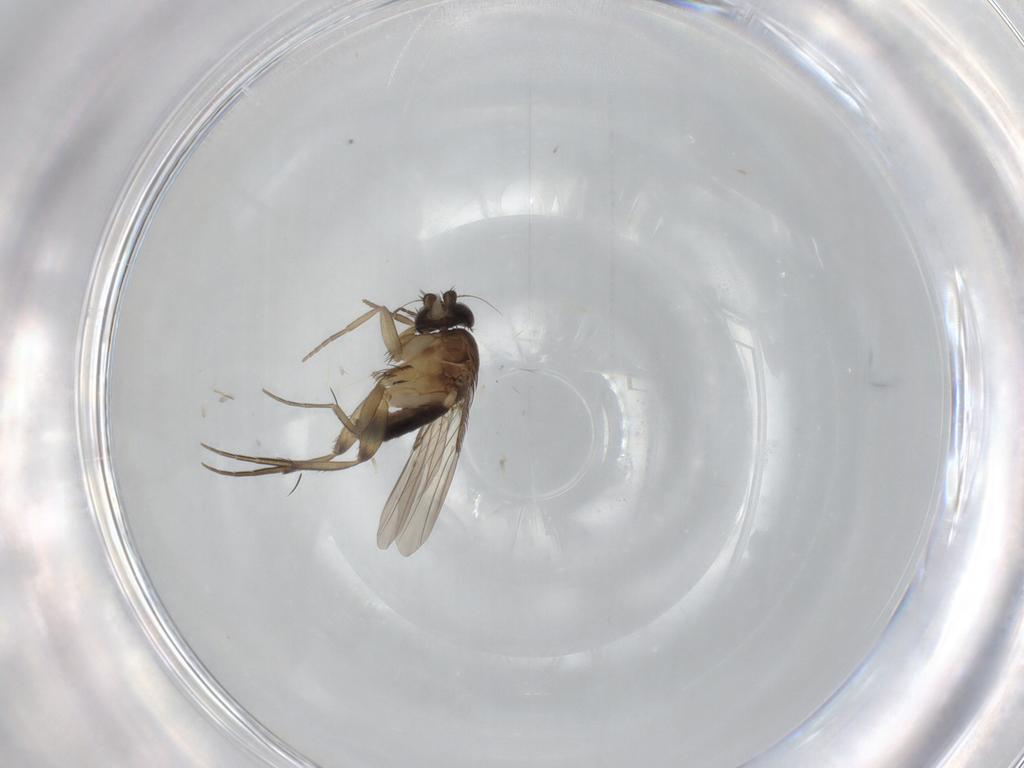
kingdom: Animalia
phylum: Arthropoda
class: Insecta
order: Diptera
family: Phoridae
